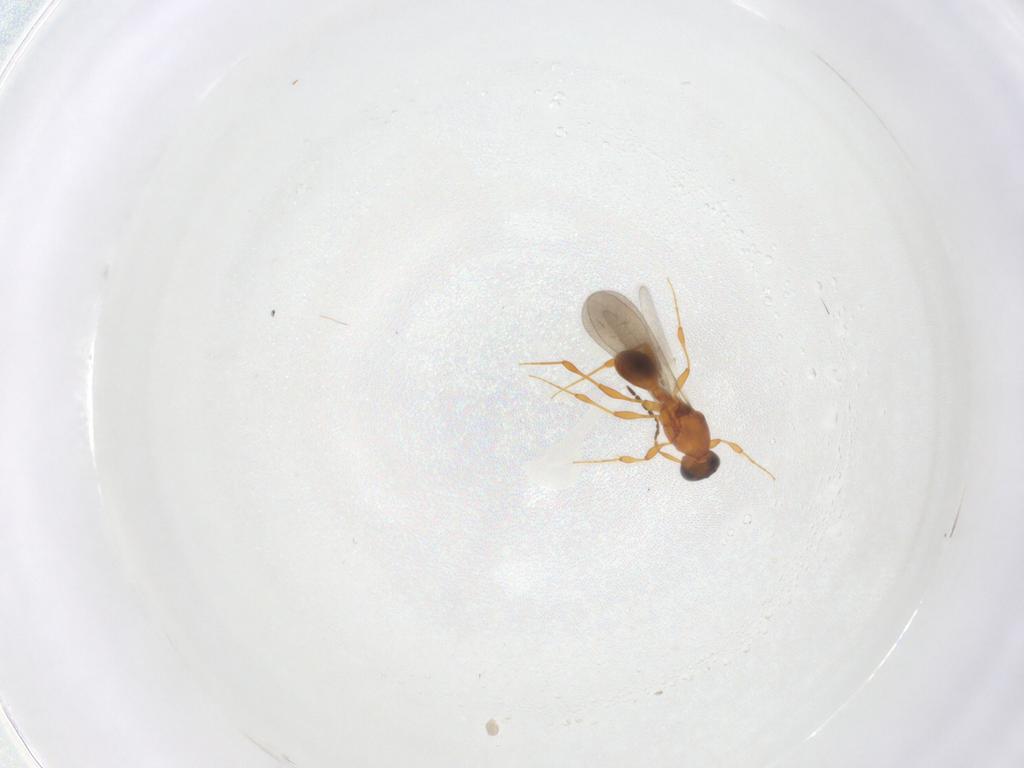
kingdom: Animalia
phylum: Arthropoda
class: Insecta
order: Hymenoptera
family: Platygastridae
